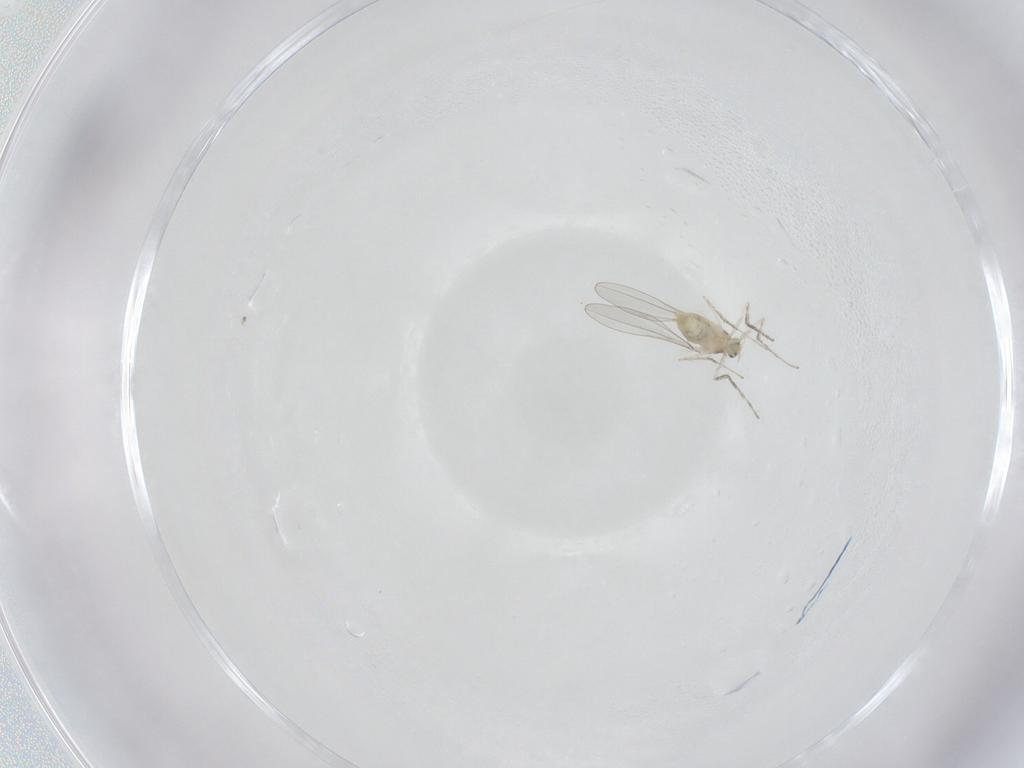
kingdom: Animalia
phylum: Arthropoda
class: Insecta
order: Diptera
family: Cecidomyiidae
